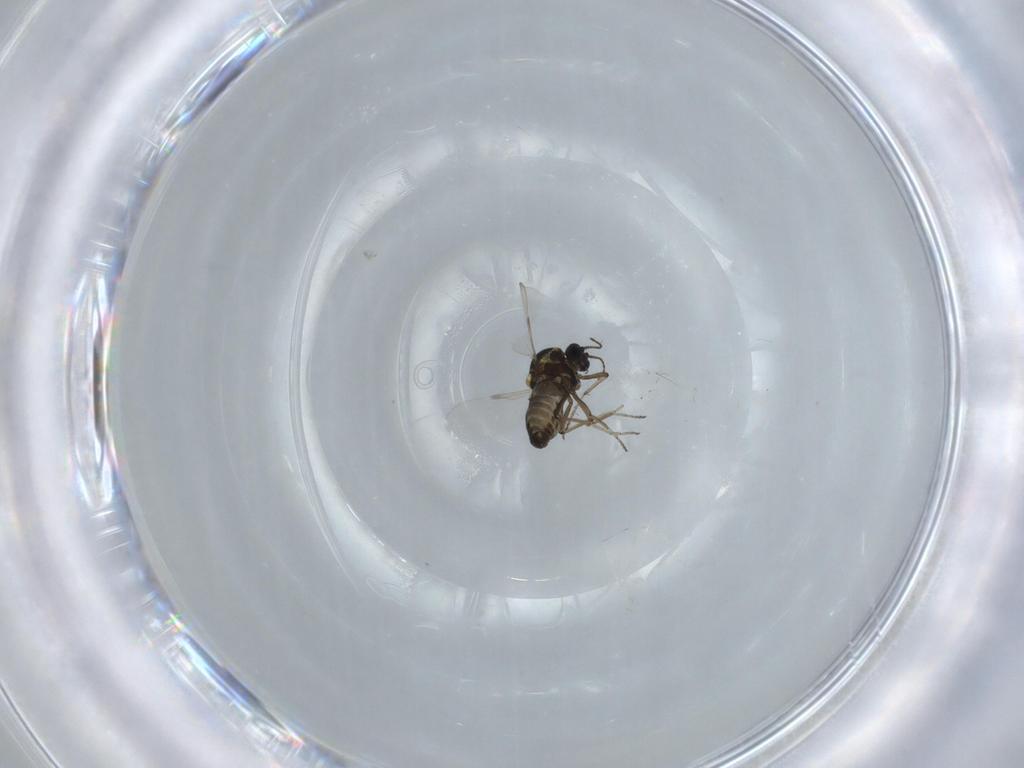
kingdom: Animalia
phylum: Arthropoda
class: Insecta
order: Diptera
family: Ceratopogonidae
